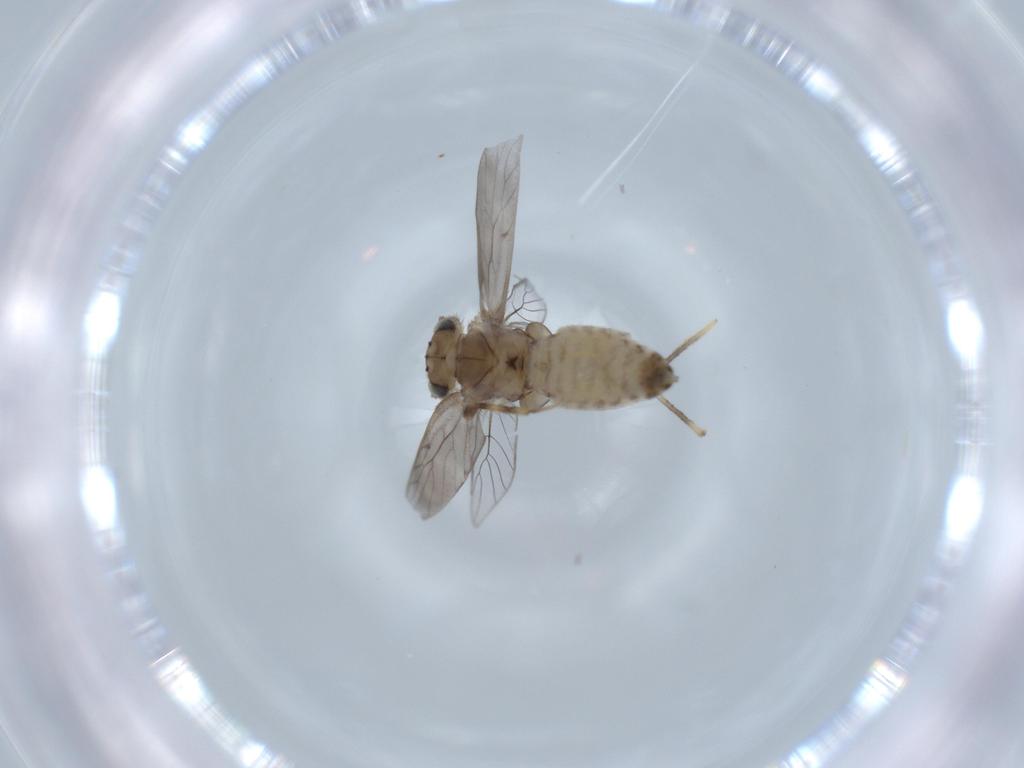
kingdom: Animalia
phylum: Arthropoda
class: Insecta
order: Psocodea
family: Lepidopsocidae
